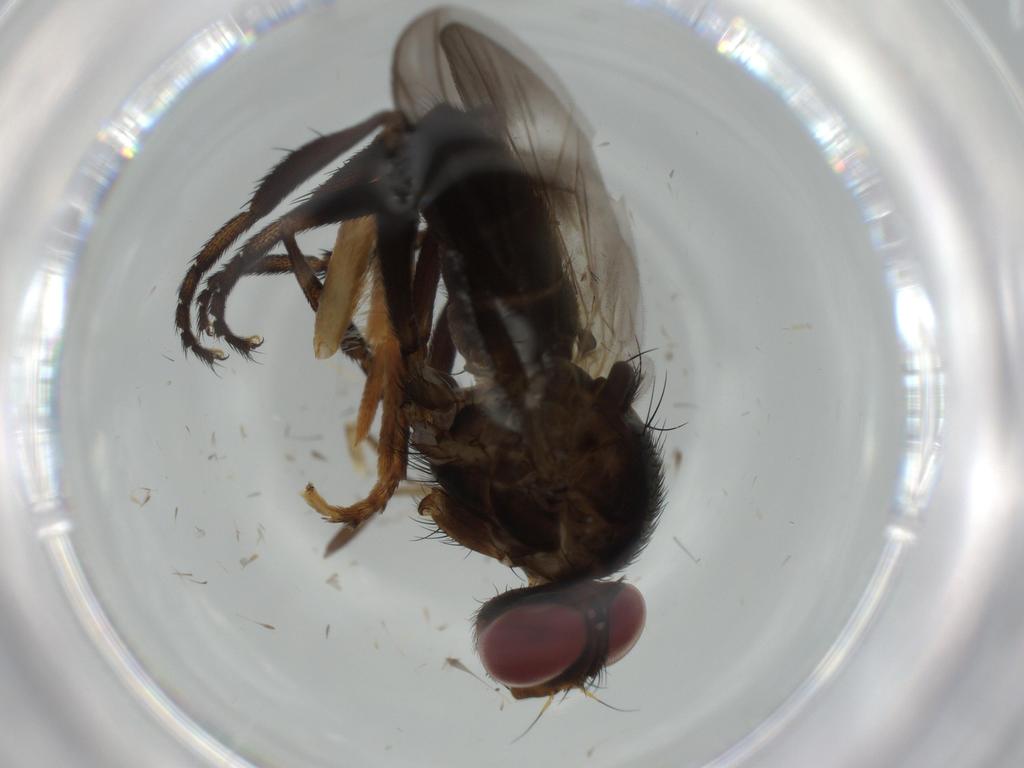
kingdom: Animalia
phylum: Arthropoda
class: Insecta
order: Diptera
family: Calliphoridae
